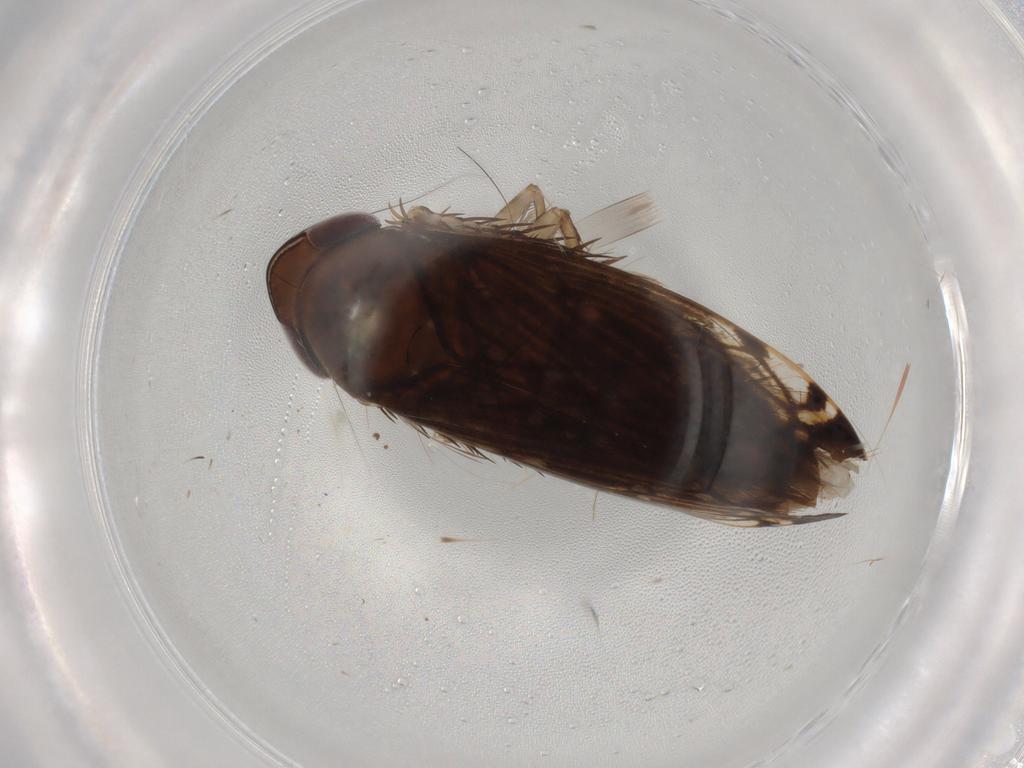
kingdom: Animalia
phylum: Arthropoda
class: Insecta
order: Hemiptera
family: Cicadellidae
